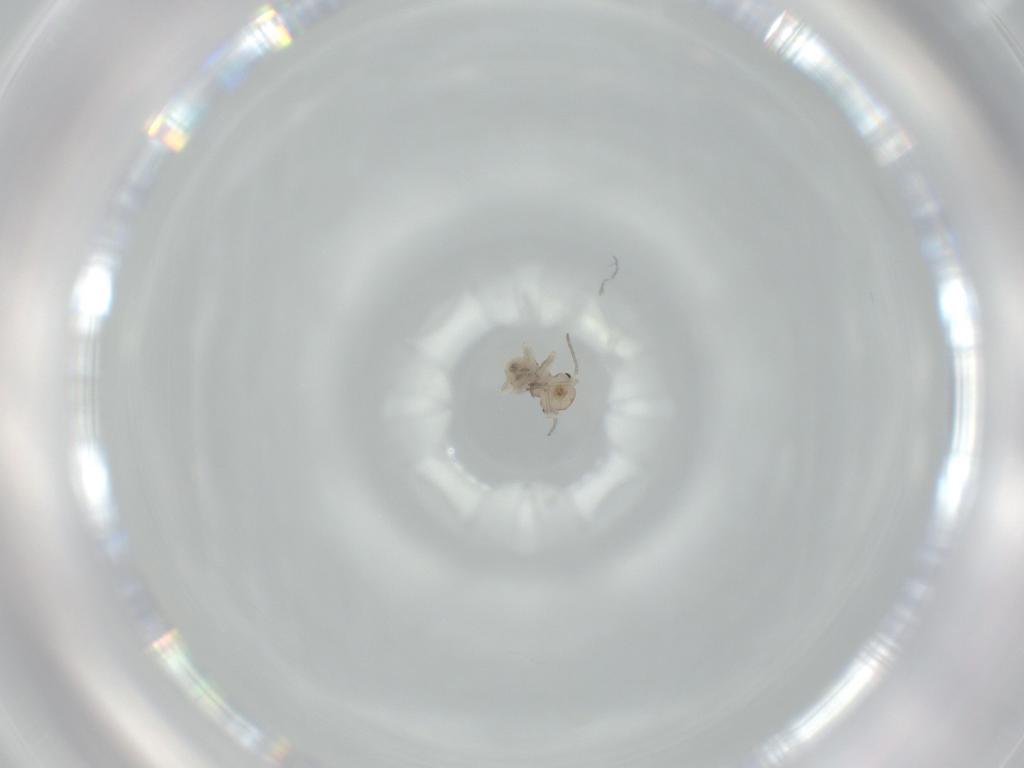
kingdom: Animalia
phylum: Arthropoda
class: Insecta
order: Psocodea
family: Psocidae
